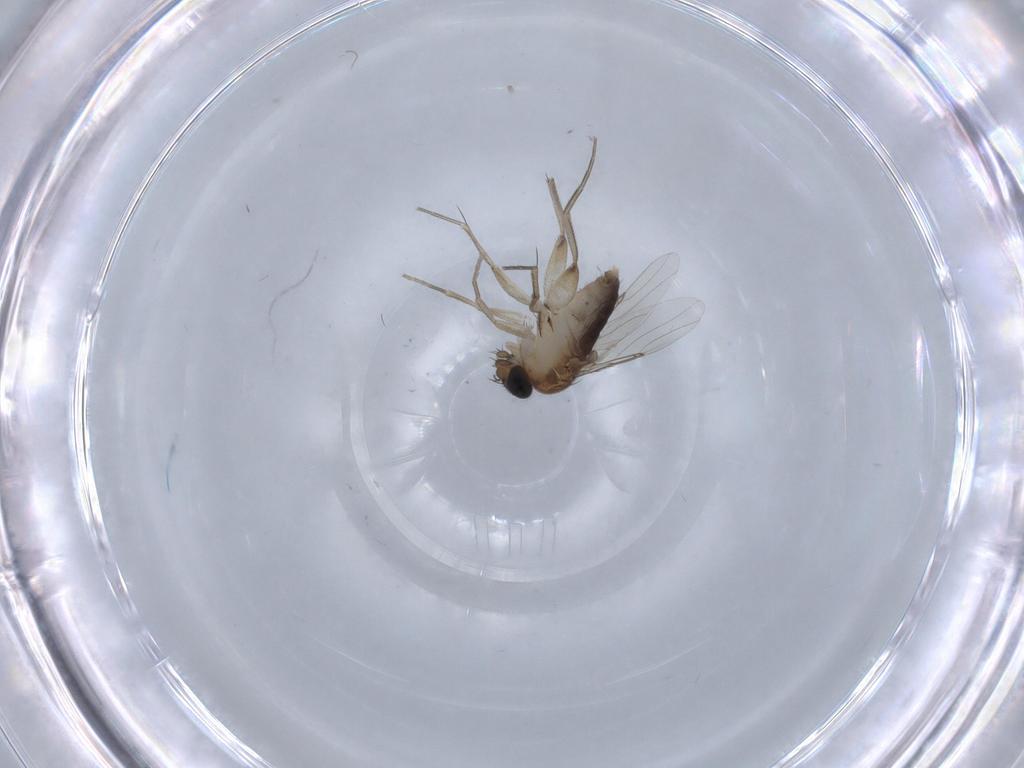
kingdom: Animalia
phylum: Arthropoda
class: Insecta
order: Diptera
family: Phoridae
